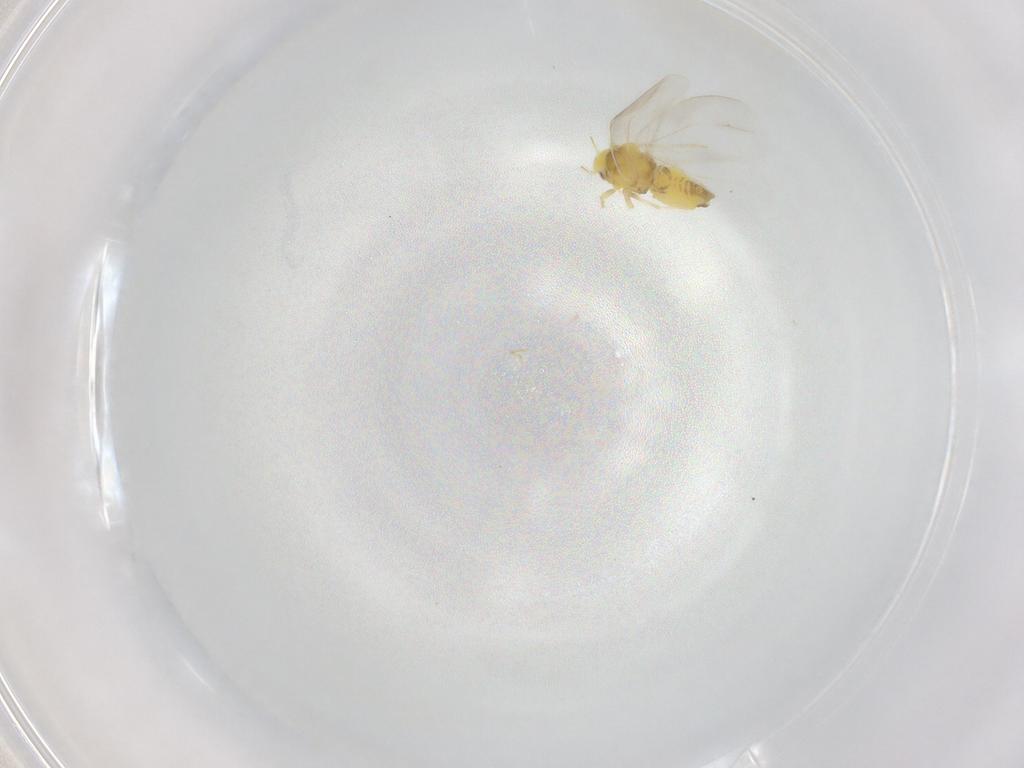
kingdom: Animalia
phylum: Arthropoda
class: Insecta
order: Hemiptera
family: Aleyrodidae
